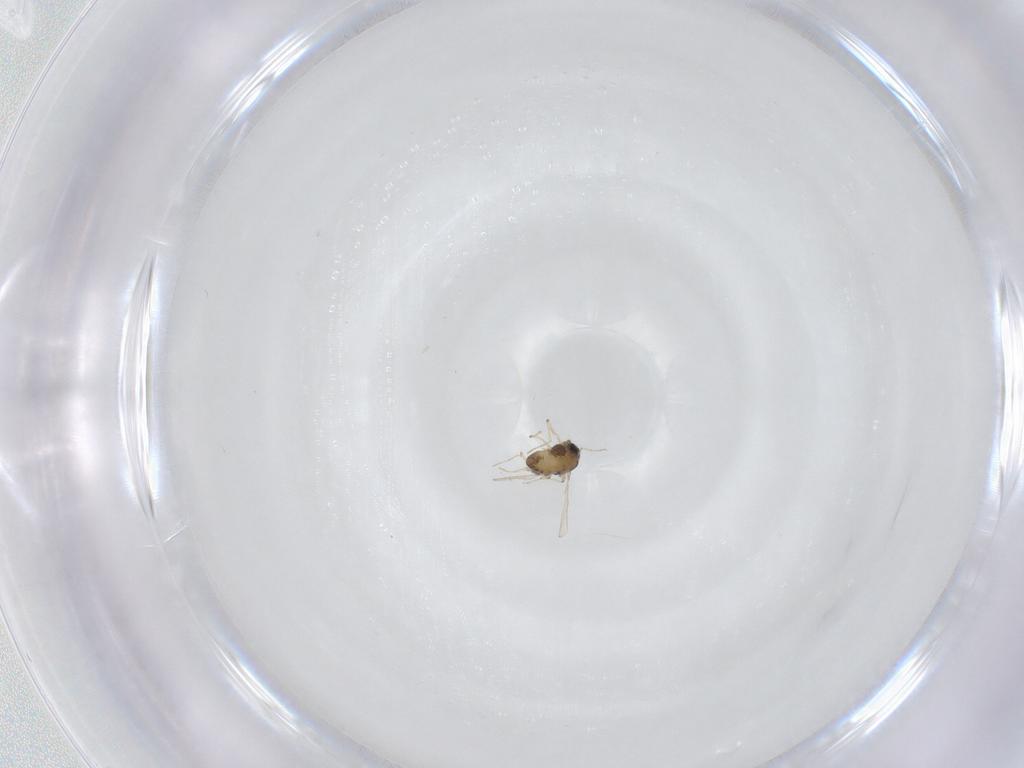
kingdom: Animalia
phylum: Arthropoda
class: Insecta
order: Diptera
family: Chironomidae
